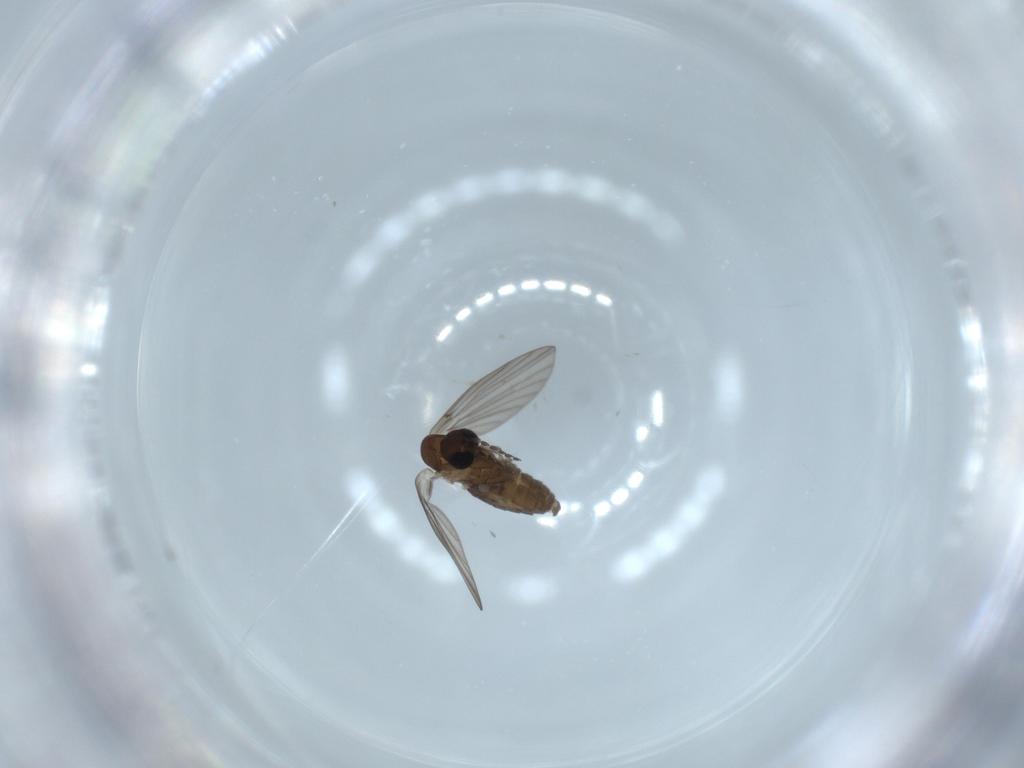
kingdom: Animalia
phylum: Arthropoda
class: Insecta
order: Diptera
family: Psychodidae
